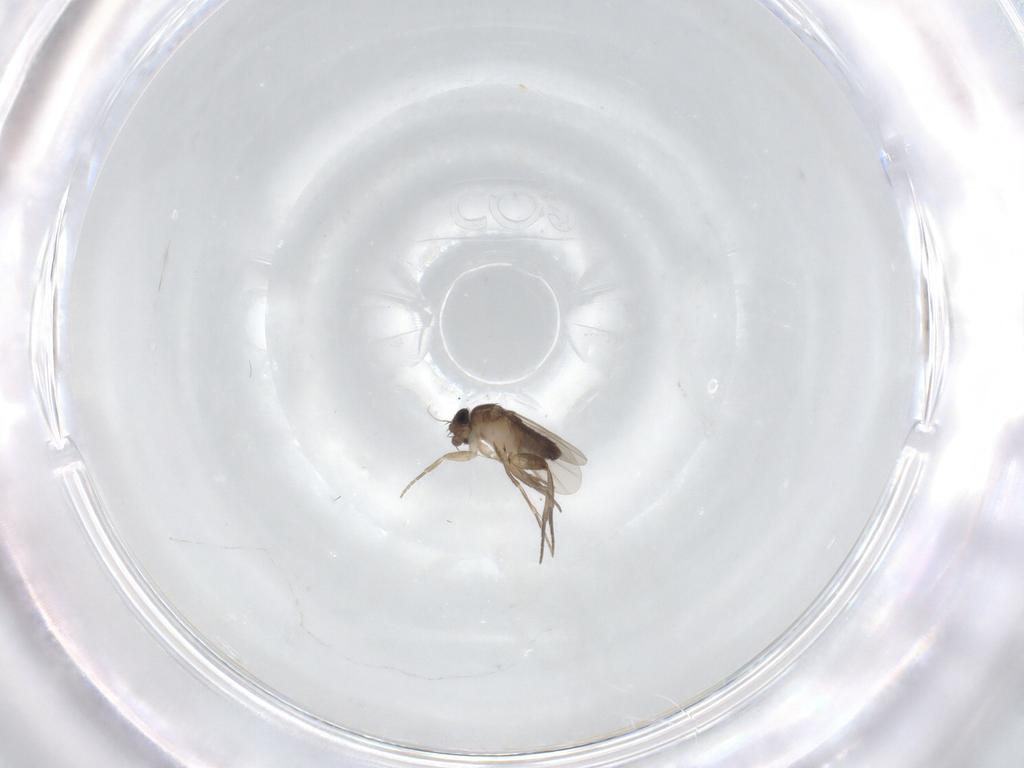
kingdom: Animalia
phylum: Arthropoda
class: Insecta
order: Diptera
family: Phoridae
